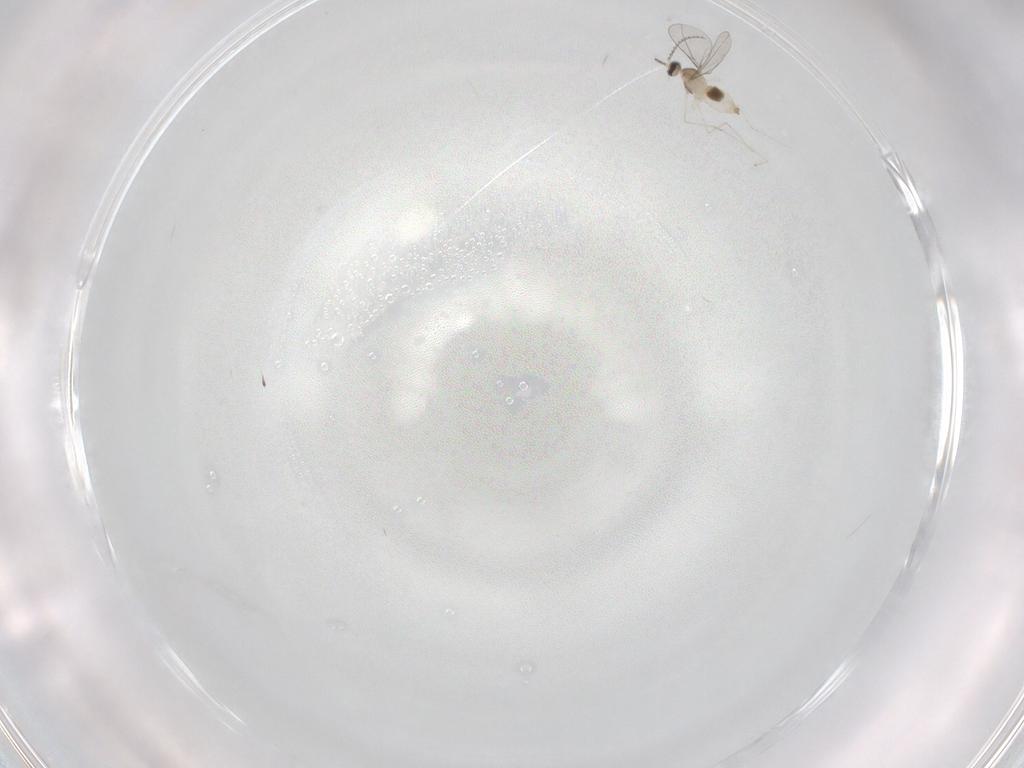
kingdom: Animalia
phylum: Arthropoda
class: Insecta
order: Diptera
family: Cecidomyiidae
